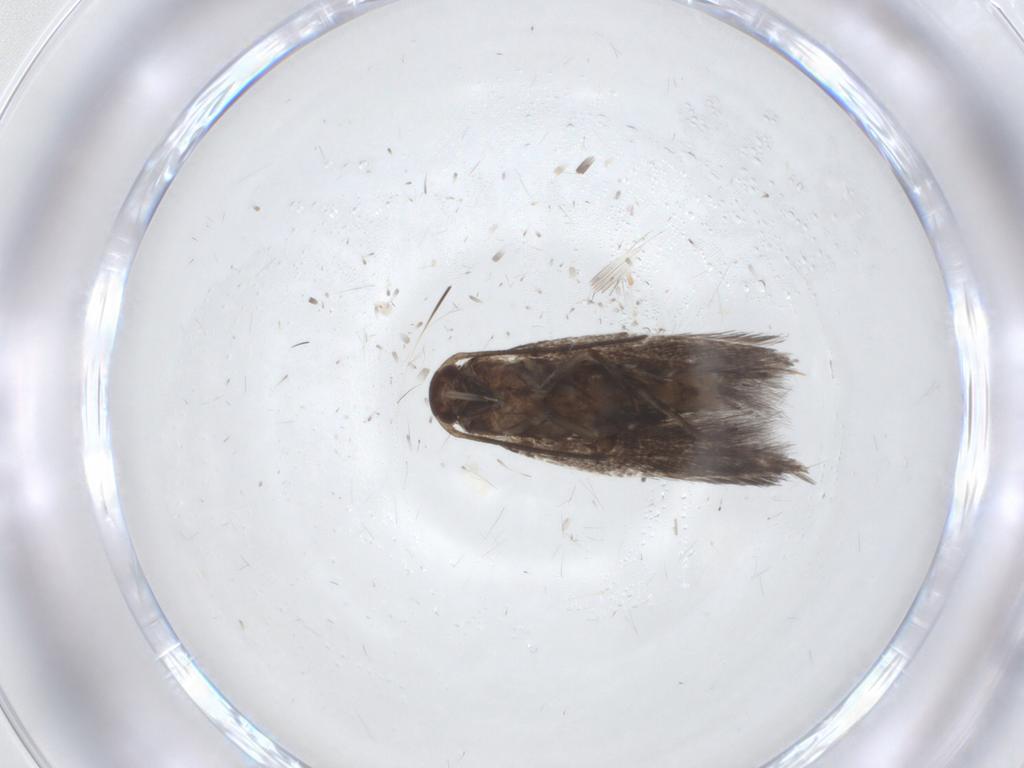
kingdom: Animalia
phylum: Arthropoda
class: Insecta
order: Lepidoptera
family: Elachistidae
